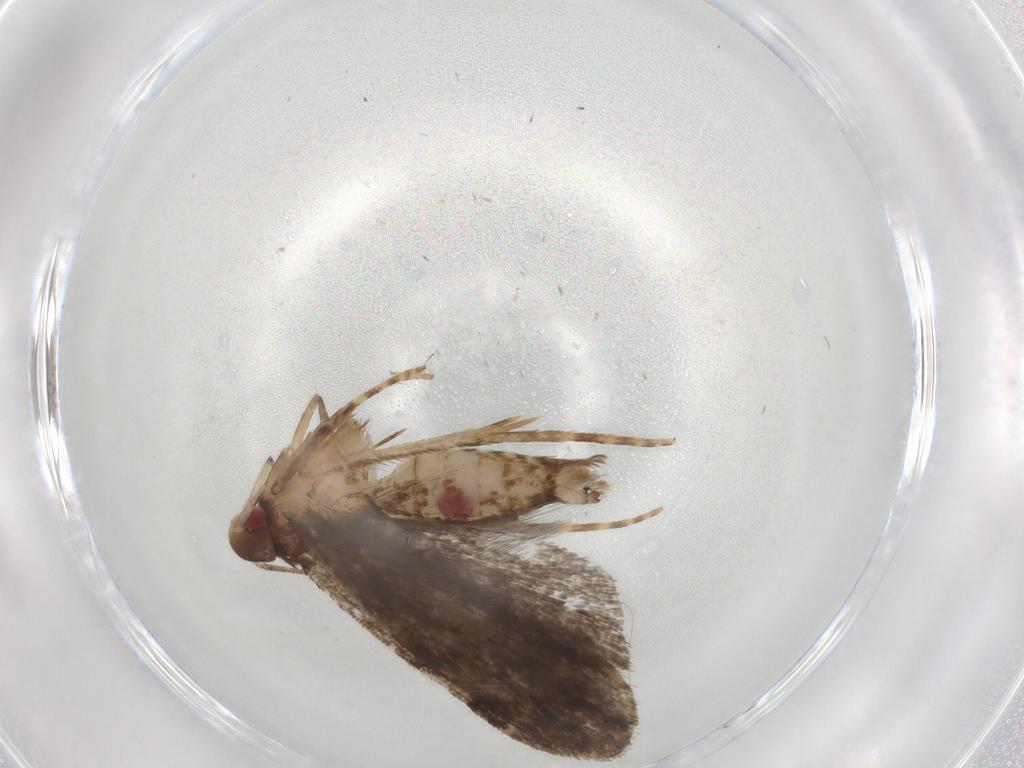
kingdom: Animalia
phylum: Arthropoda
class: Insecta
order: Lepidoptera
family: Gelechiidae
